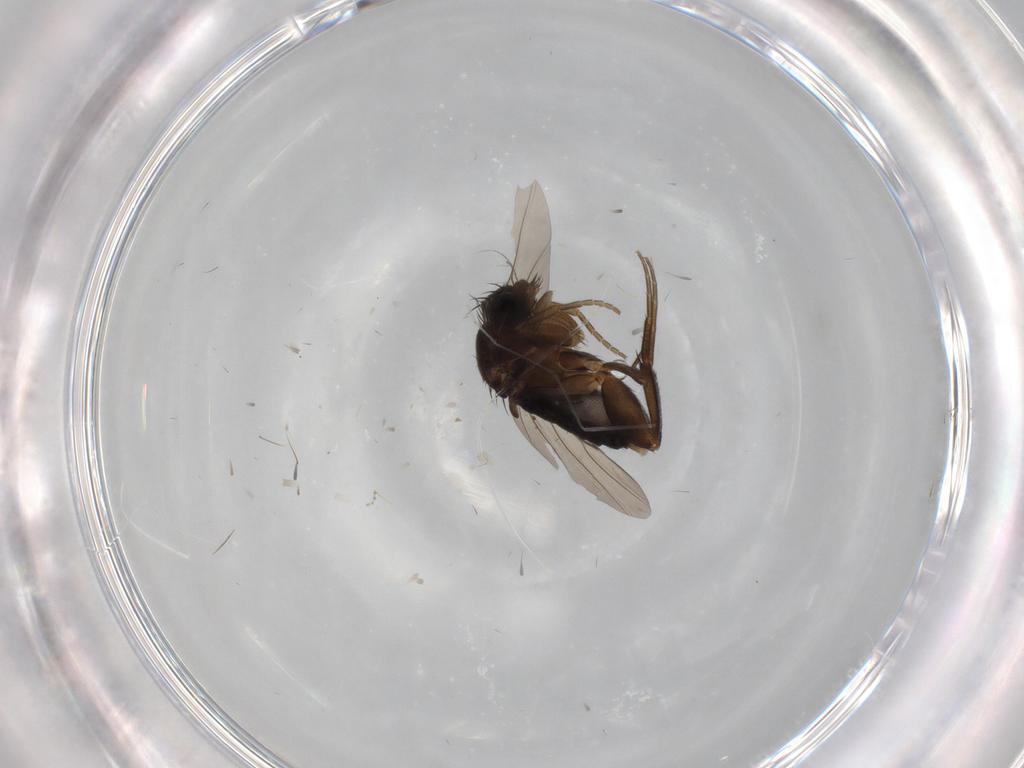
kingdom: Animalia
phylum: Arthropoda
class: Insecta
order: Diptera
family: Phoridae
